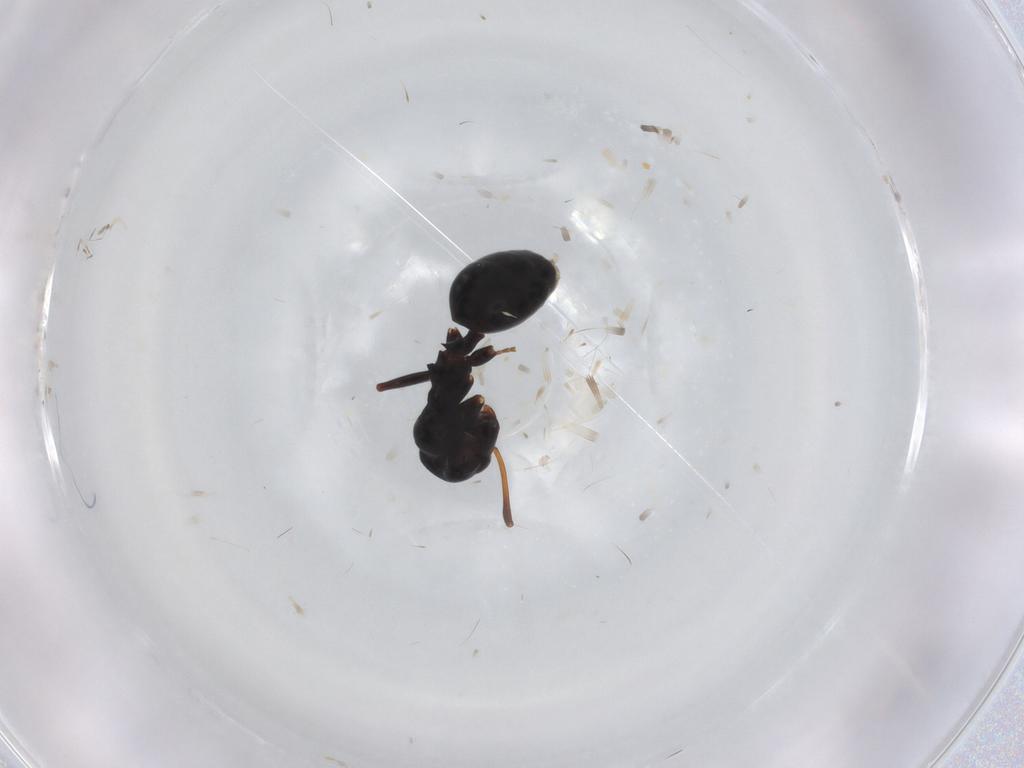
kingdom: Animalia
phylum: Arthropoda
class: Insecta
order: Hymenoptera
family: Formicidae
